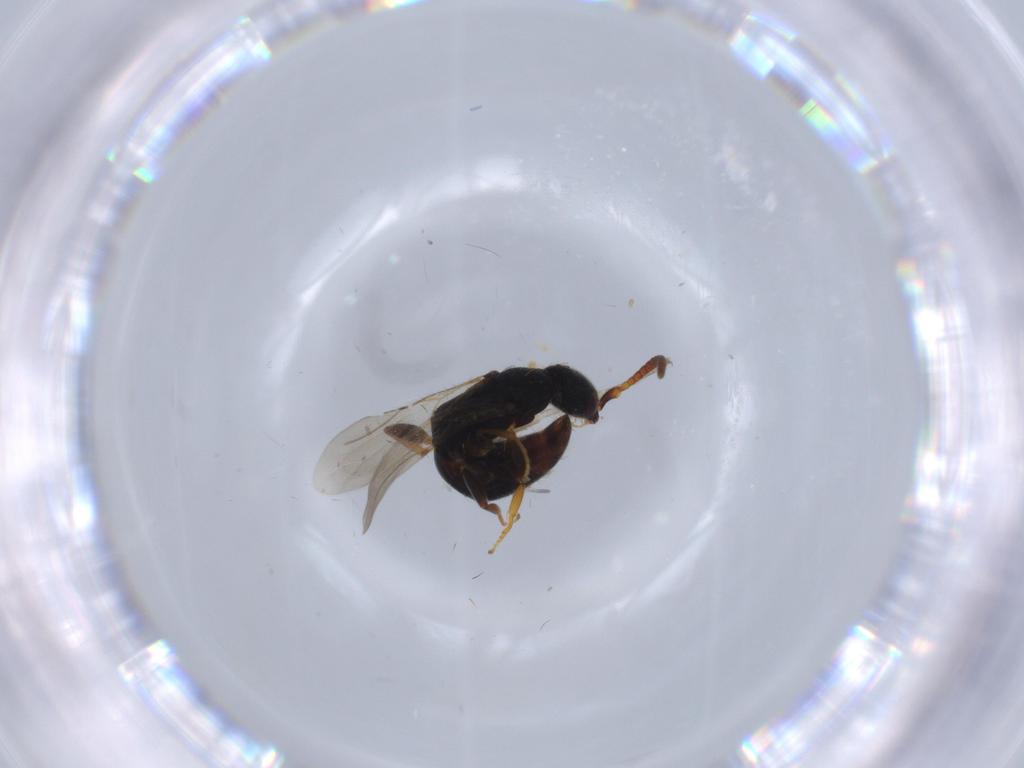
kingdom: Animalia
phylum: Arthropoda
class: Insecta
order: Hymenoptera
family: Bethylidae
